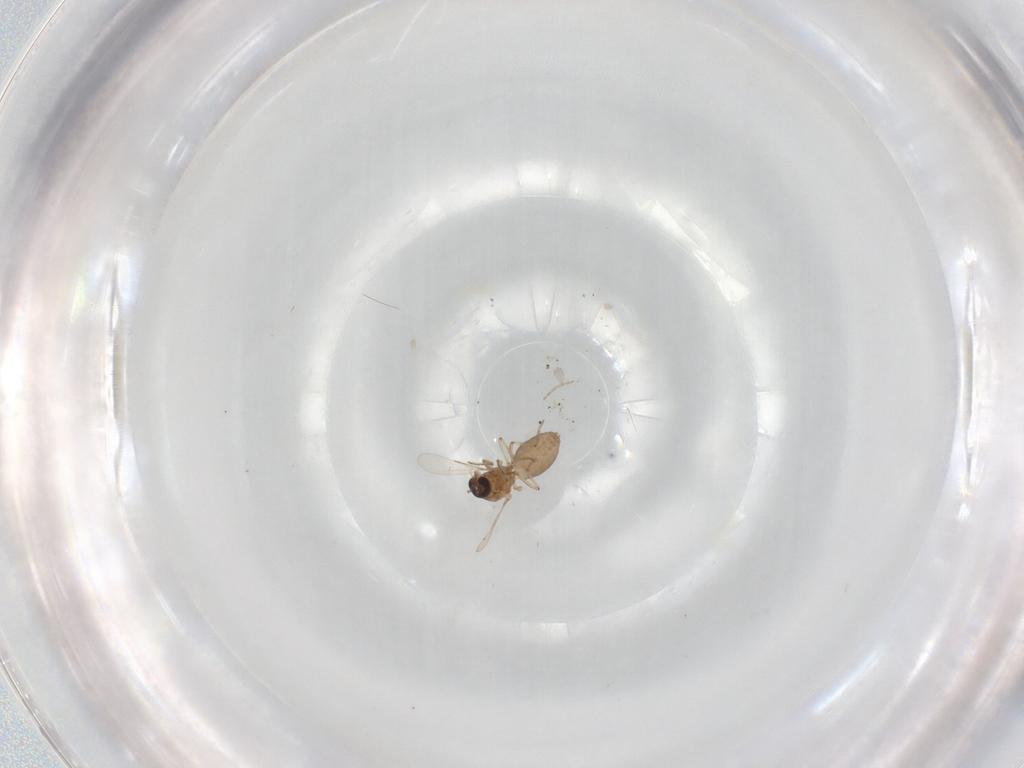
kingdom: Animalia
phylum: Arthropoda
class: Insecta
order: Diptera
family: Ceratopogonidae
